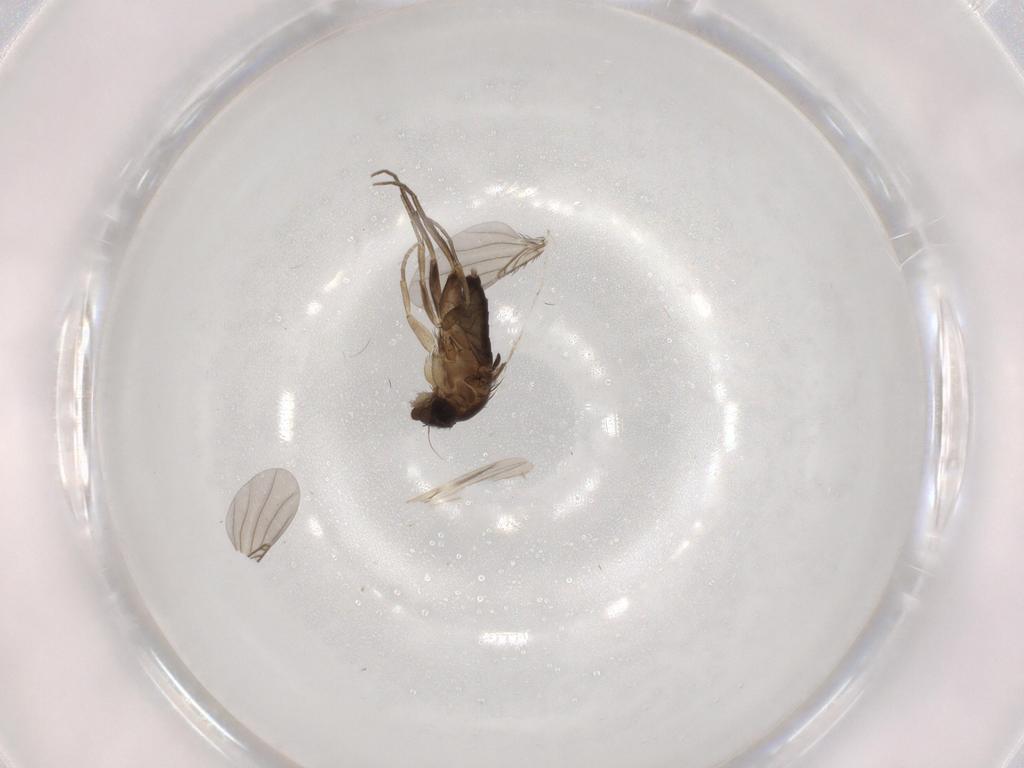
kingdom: Animalia
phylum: Arthropoda
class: Insecta
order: Diptera
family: Phoridae
